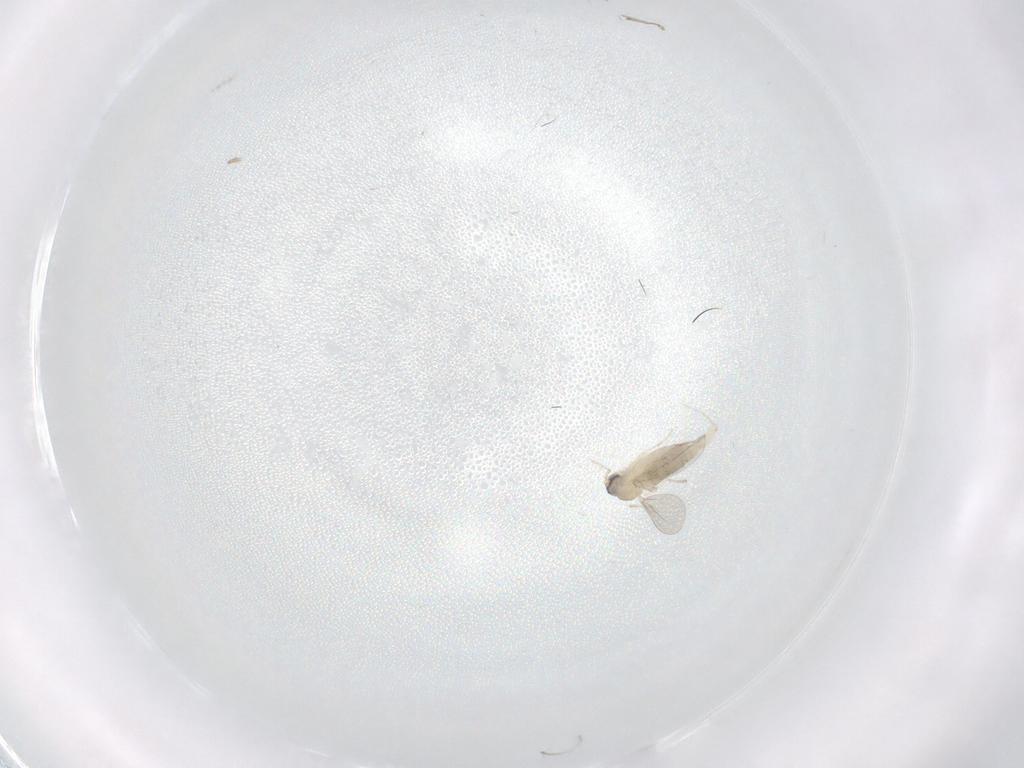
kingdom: Animalia
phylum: Arthropoda
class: Insecta
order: Diptera
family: Cecidomyiidae
